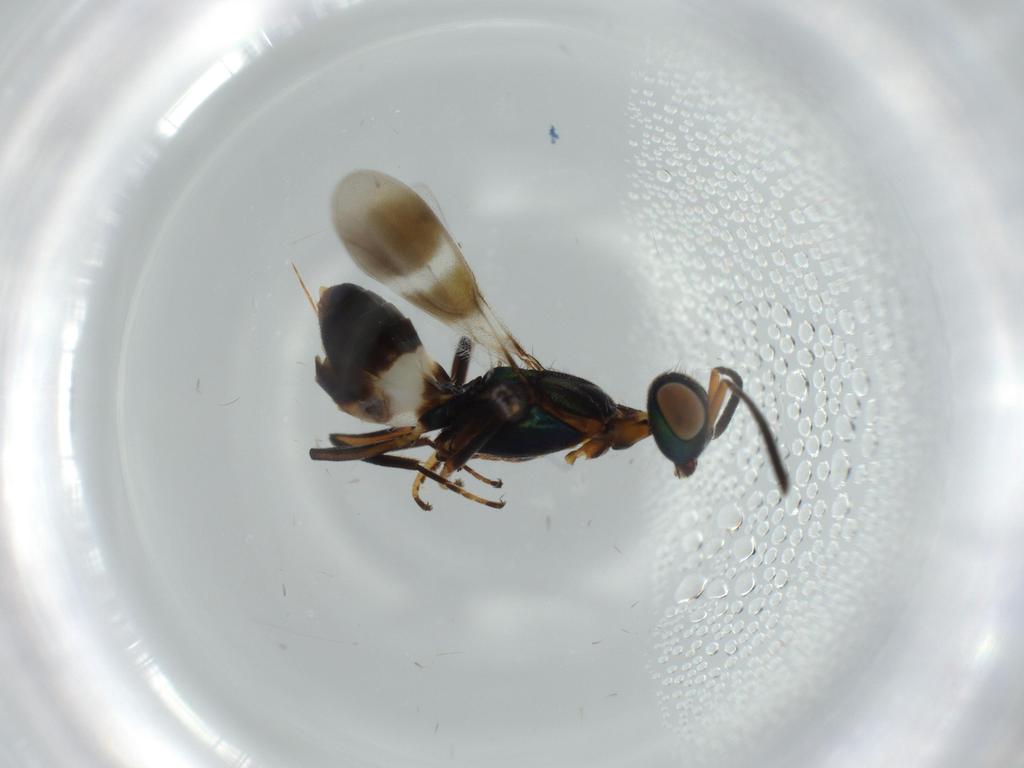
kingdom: Animalia
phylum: Arthropoda
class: Insecta
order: Hymenoptera
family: Eupelmidae
